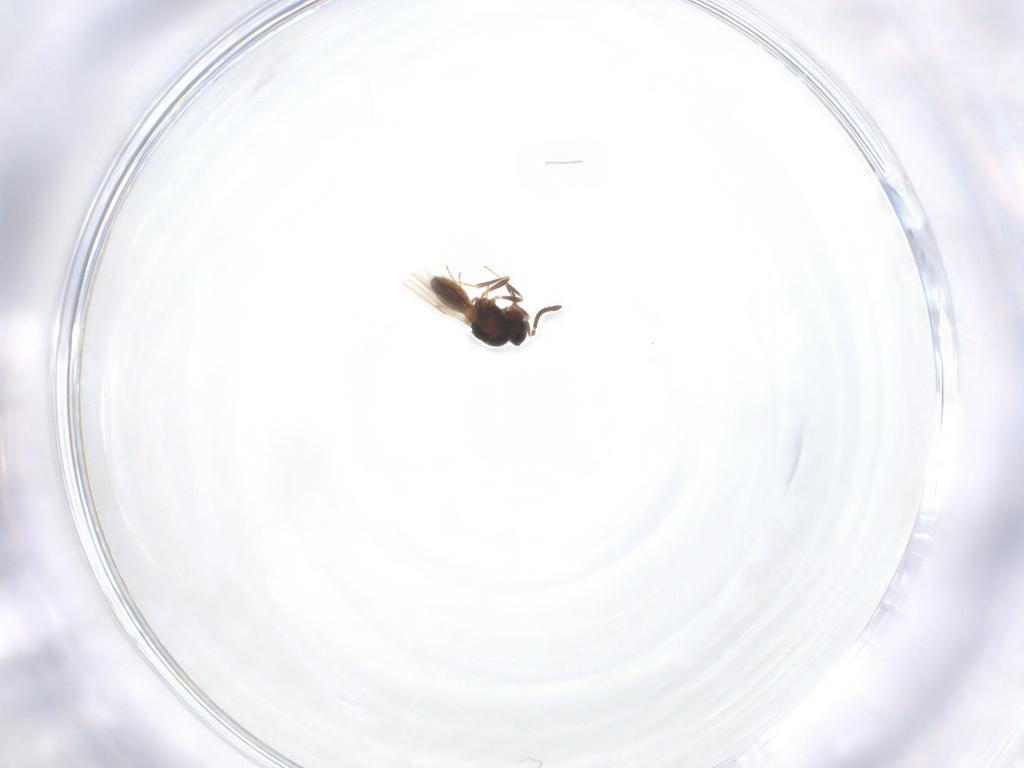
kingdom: Animalia
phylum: Arthropoda
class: Insecta
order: Hymenoptera
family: Scelionidae
